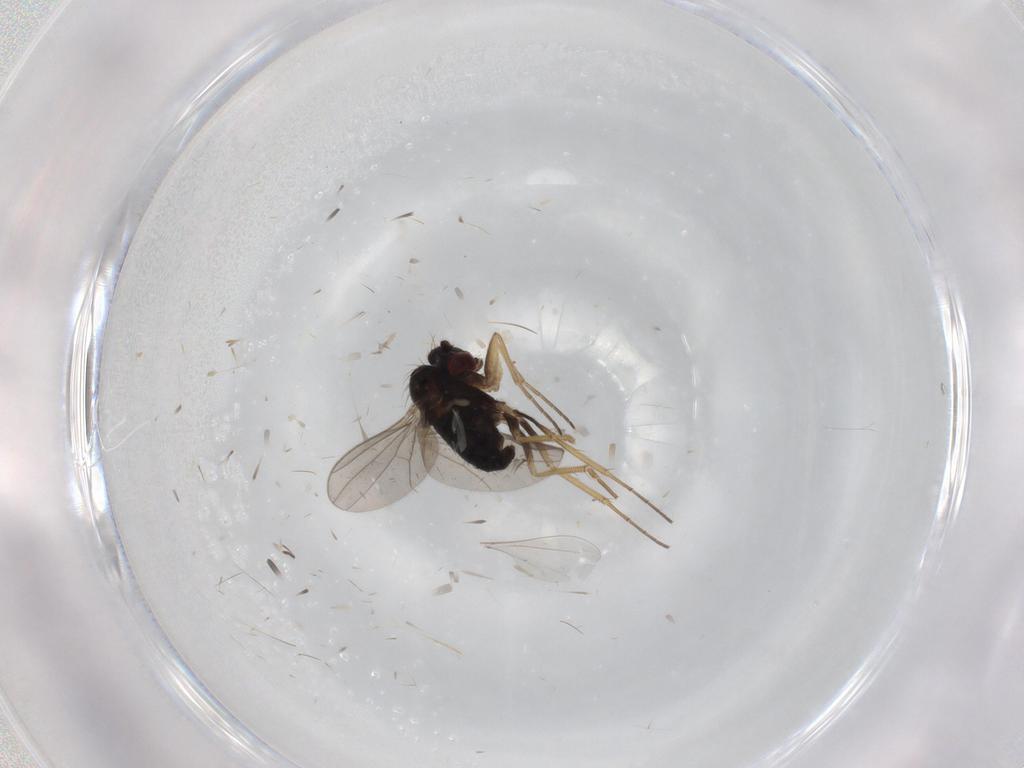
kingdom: Animalia
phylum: Arthropoda
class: Insecta
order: Diptera
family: Dolichopodidae
